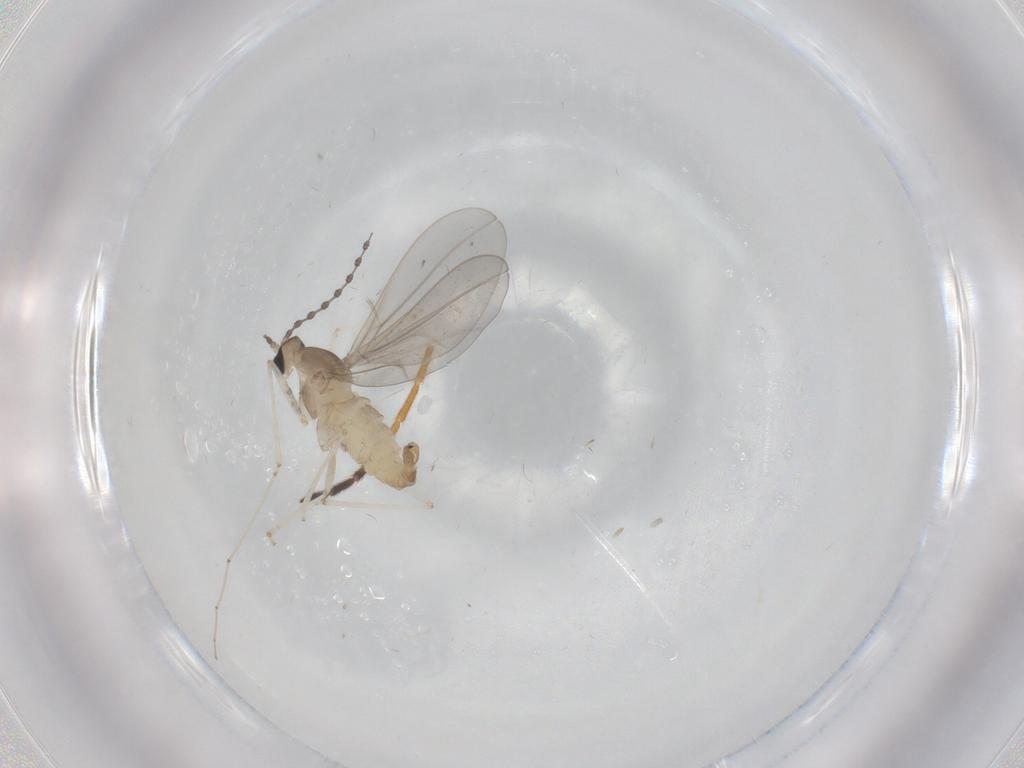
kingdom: Animalia
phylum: Arthropoda
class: Insecta
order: Diptera
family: Cecidomyiidae
